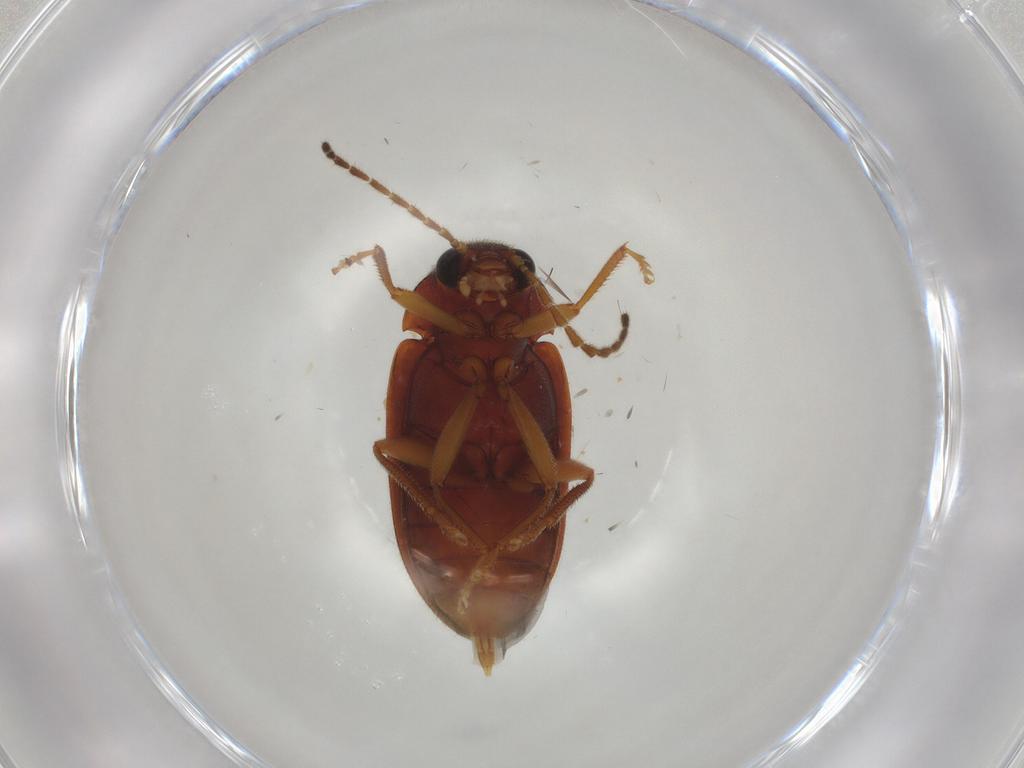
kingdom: Animalia
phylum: Arthropoda
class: Insecta
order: Coleoptera
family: Ptilodactylidae
